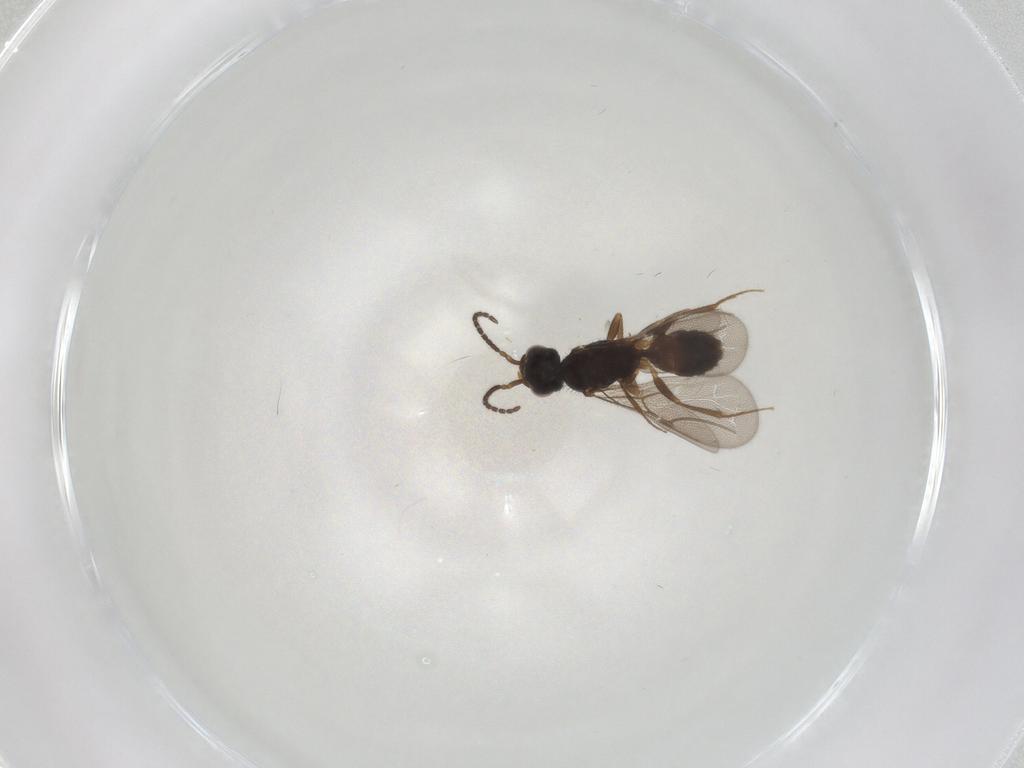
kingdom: Animalia
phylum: Arthropoda
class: Insecta
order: Hymenoptera
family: Bethylidae
